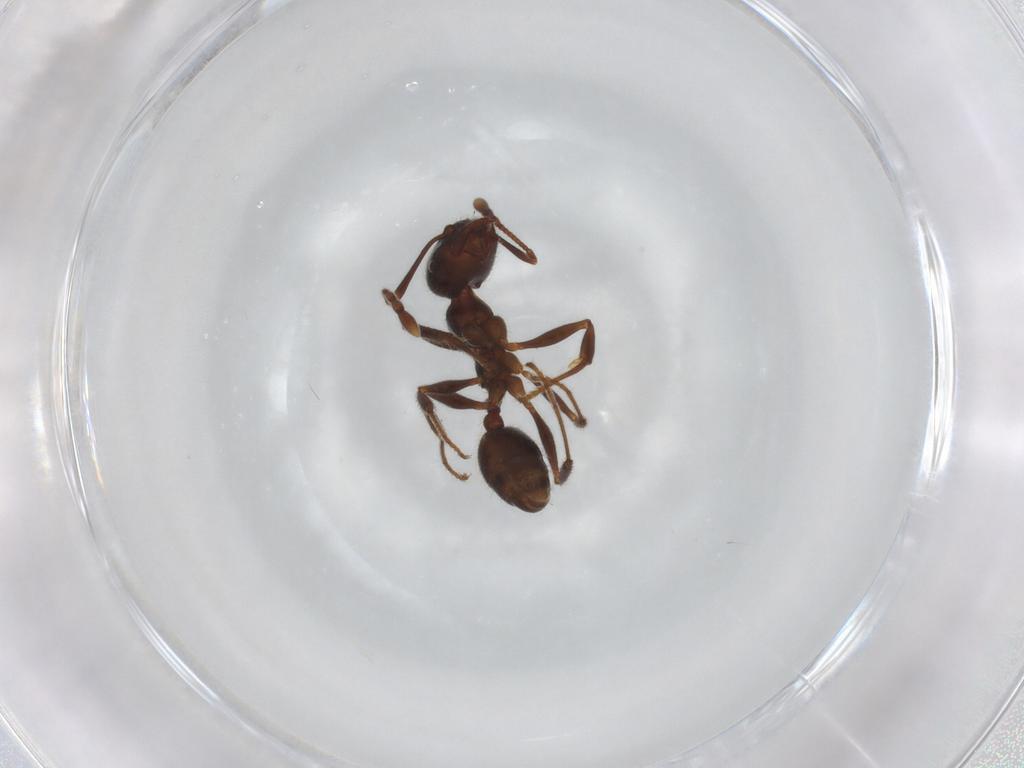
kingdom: Animalia
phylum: Arthropoda
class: Insecta
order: Hymenoptera
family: Formicidae
